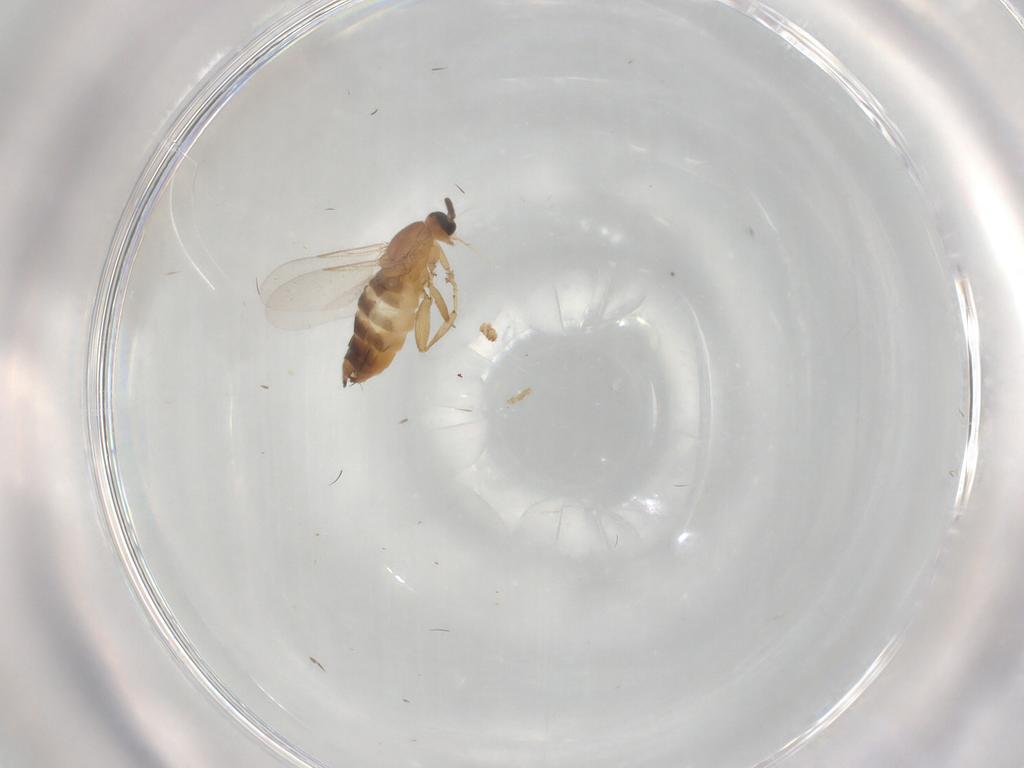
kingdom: Animalia
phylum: Arthropoda
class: Insecta
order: Diptera
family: Scatopsidae
